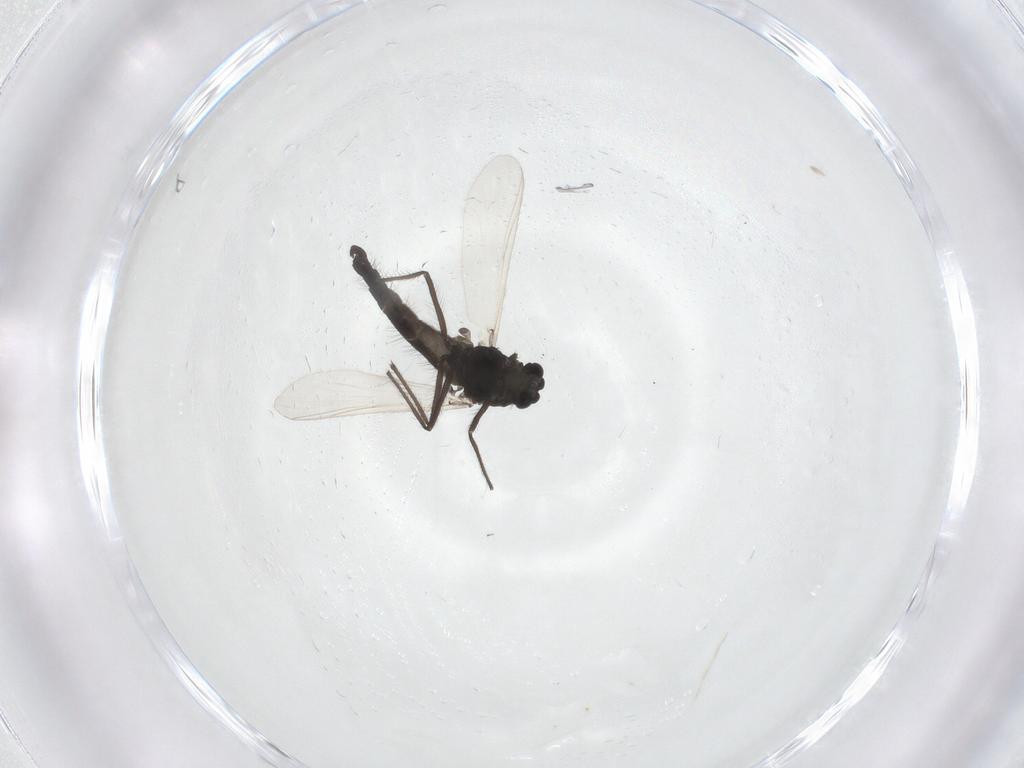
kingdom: Animalia
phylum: Arthropoda
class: Insecta
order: Diptera
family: Chironomidae
